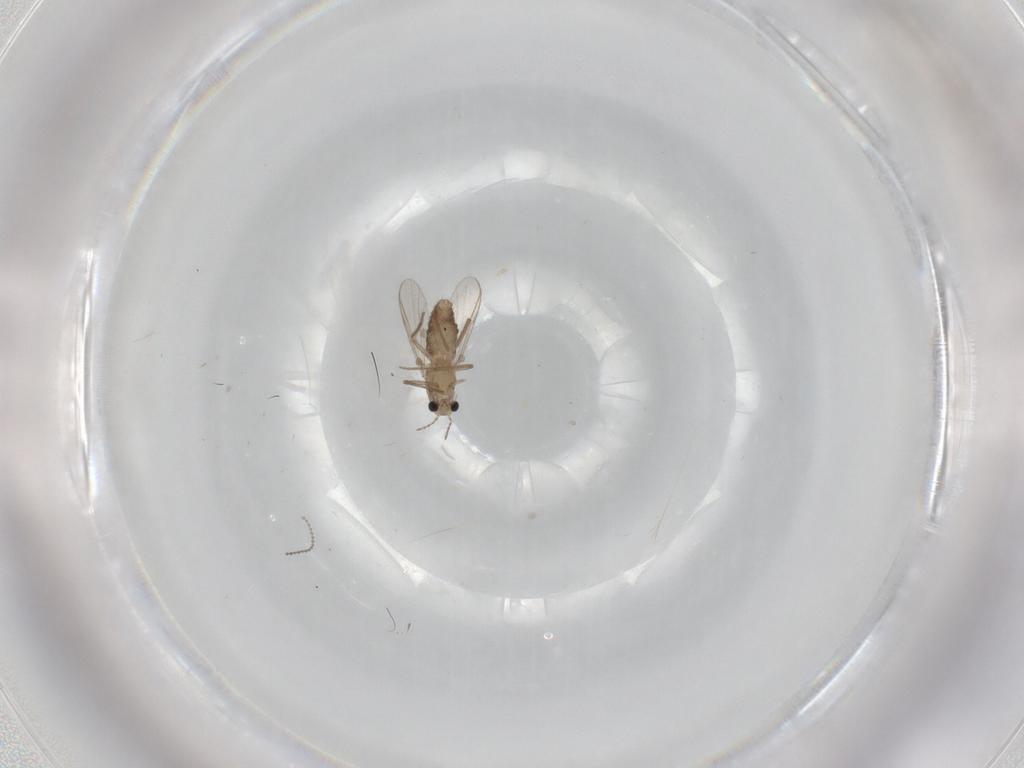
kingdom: Animalia
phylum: Arthropoda
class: Insecta
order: Diptera
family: Chironomidae
